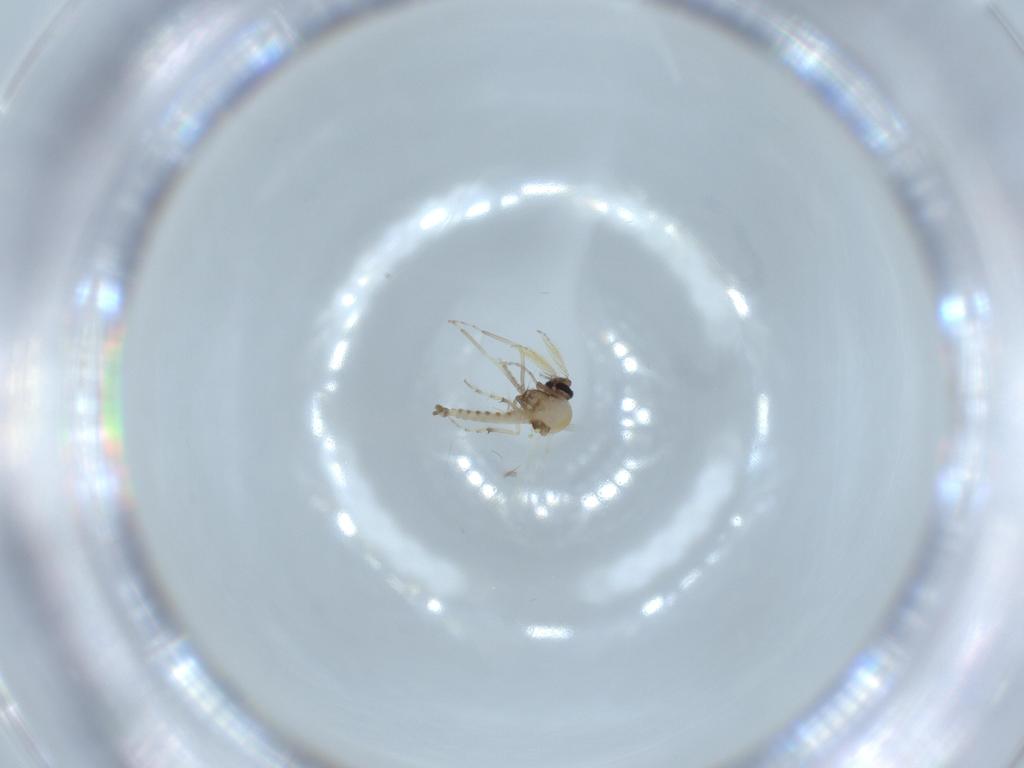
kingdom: Animalia
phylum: Arthropoda
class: Insecta
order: Diptera
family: Ceratopogonidae
